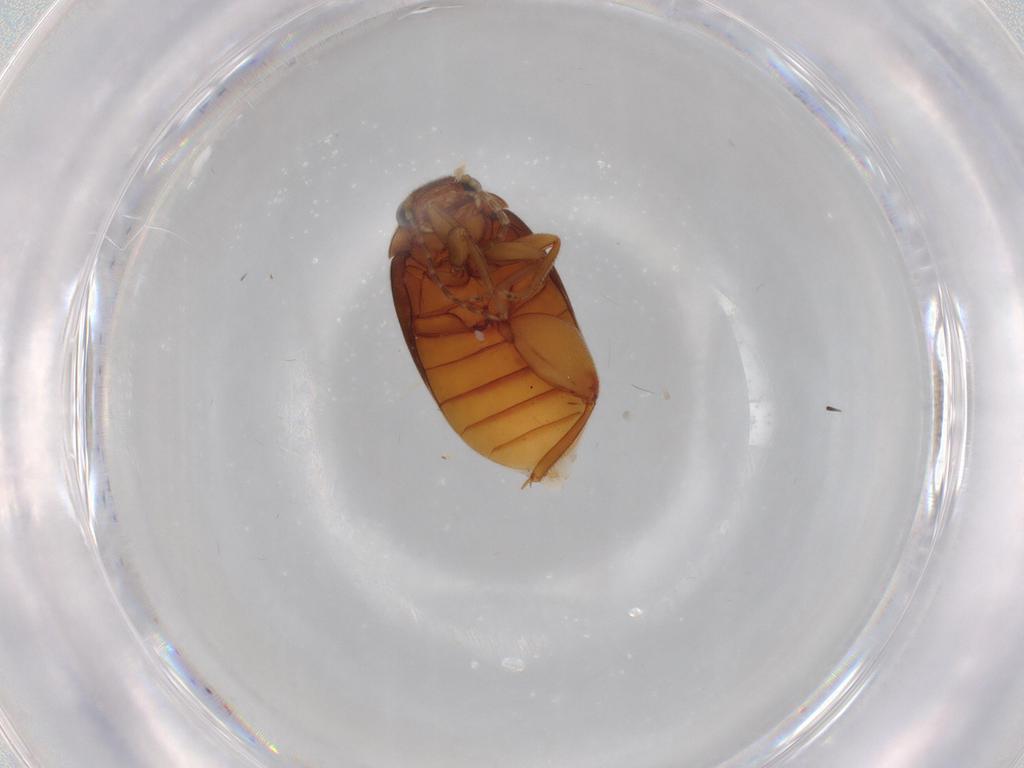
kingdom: Animalia
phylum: Arthropoda
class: Insecta
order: Coleoptera
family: Scirtidae
